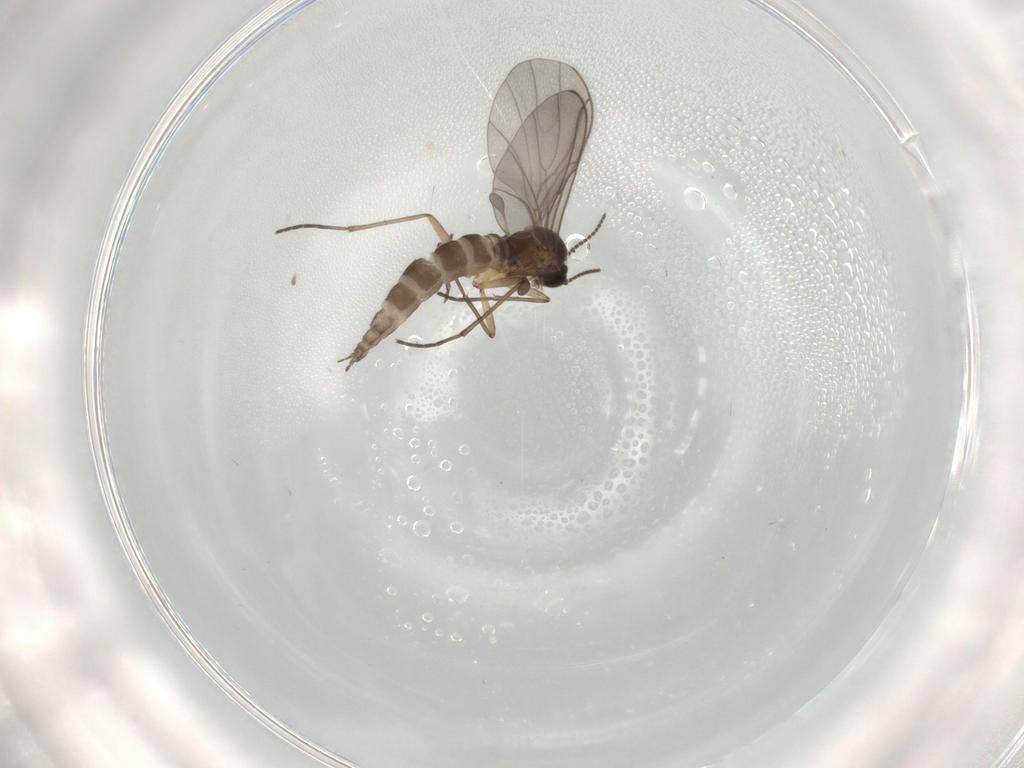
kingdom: Animalia
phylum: Arthropoda
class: Insecta
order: Diptera
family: Sciaridae
